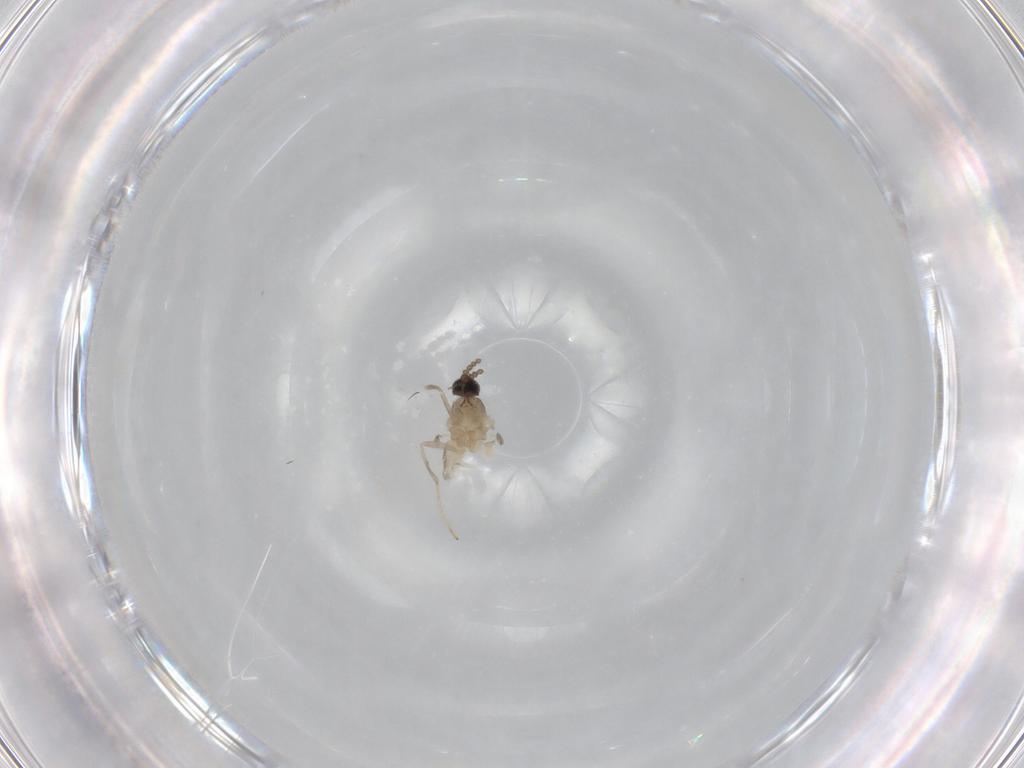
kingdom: Animalia
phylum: Arthropoda
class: Insecta
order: Diptera
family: Cecidomyiidae
